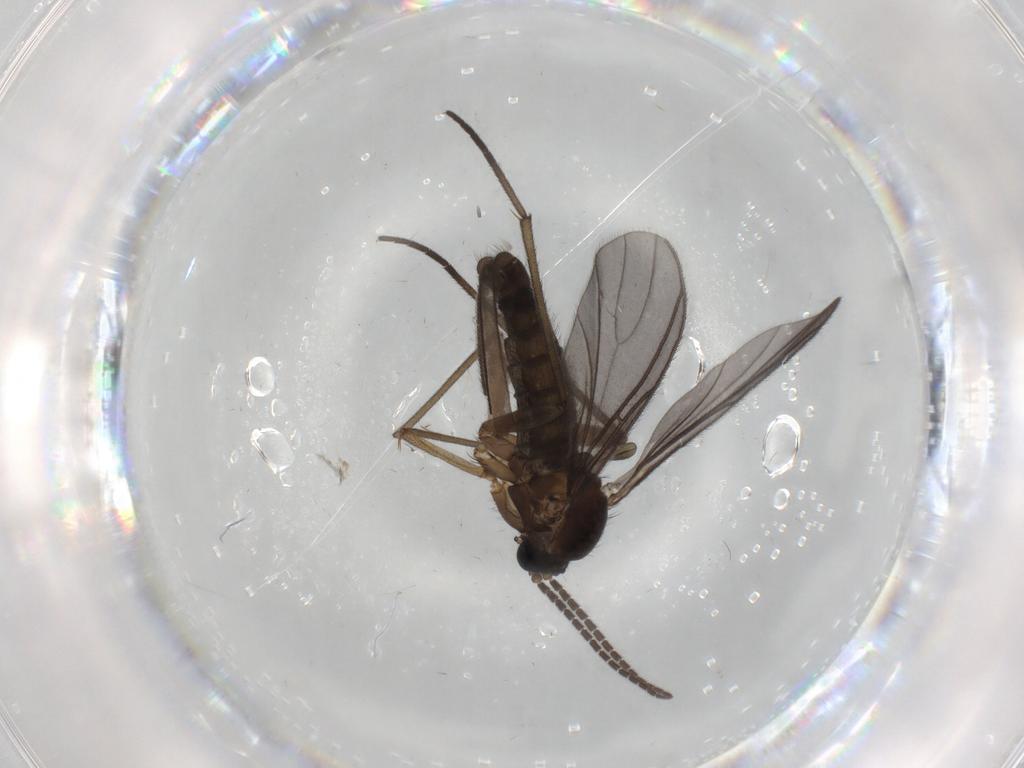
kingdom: Animalia
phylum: Arthropoda
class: Insecta
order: Diptera
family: Sciaridae
